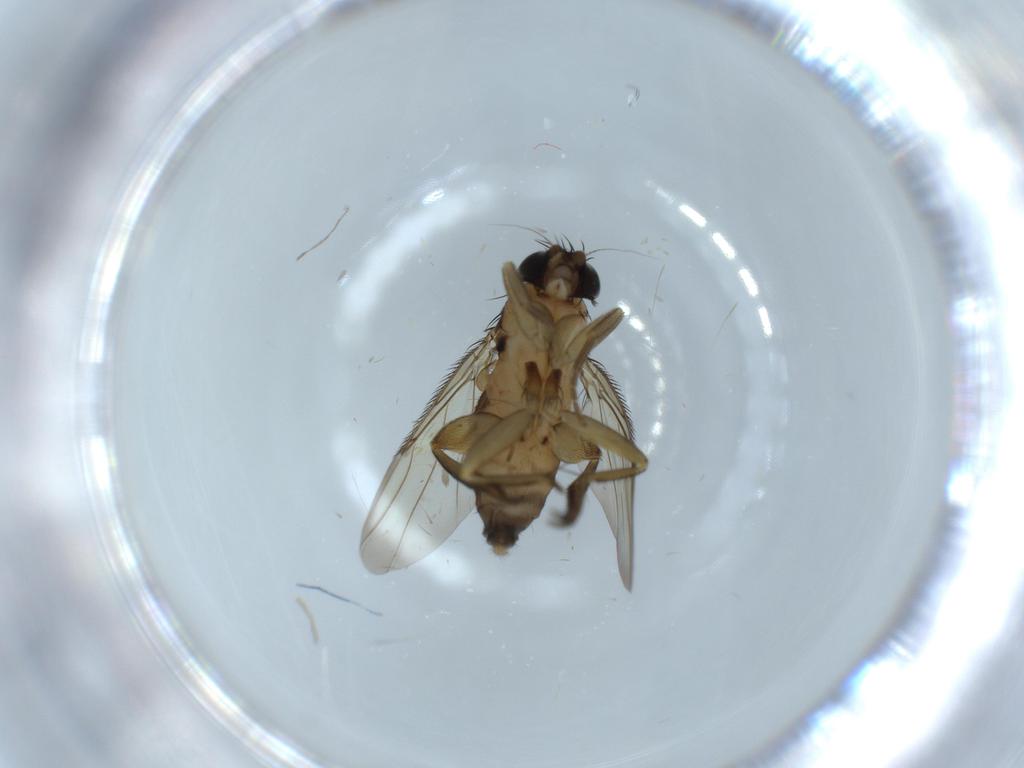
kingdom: Animalia
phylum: Arthropoda
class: Insecta
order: Diptera
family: Phoridae
